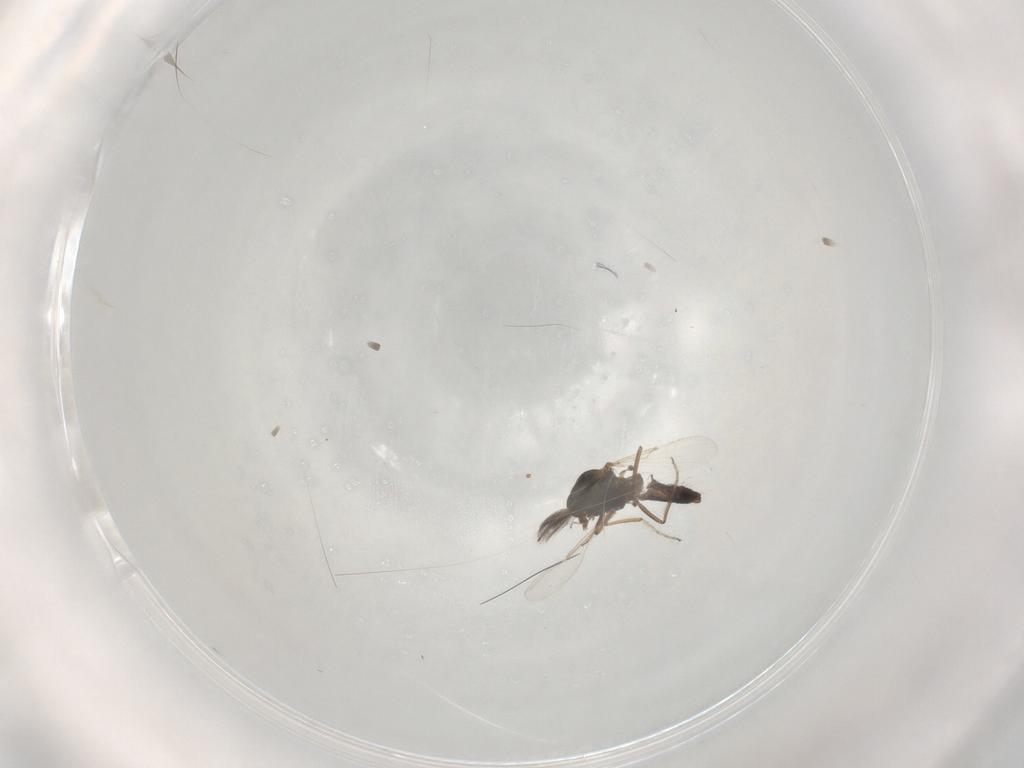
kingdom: Animalia
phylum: Arthropoda
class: Insecta
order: Diptera
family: Ceratopogonidae
